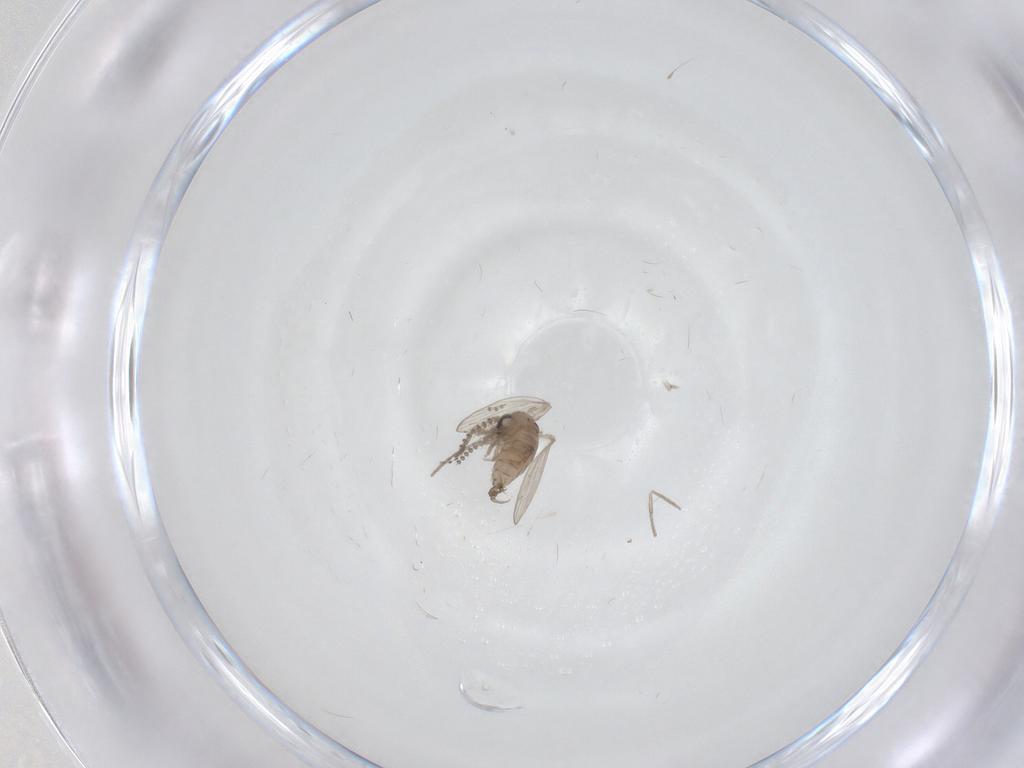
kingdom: Animalia
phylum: Arthropoda
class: Insecta
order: Diptera
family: Psychodidae
